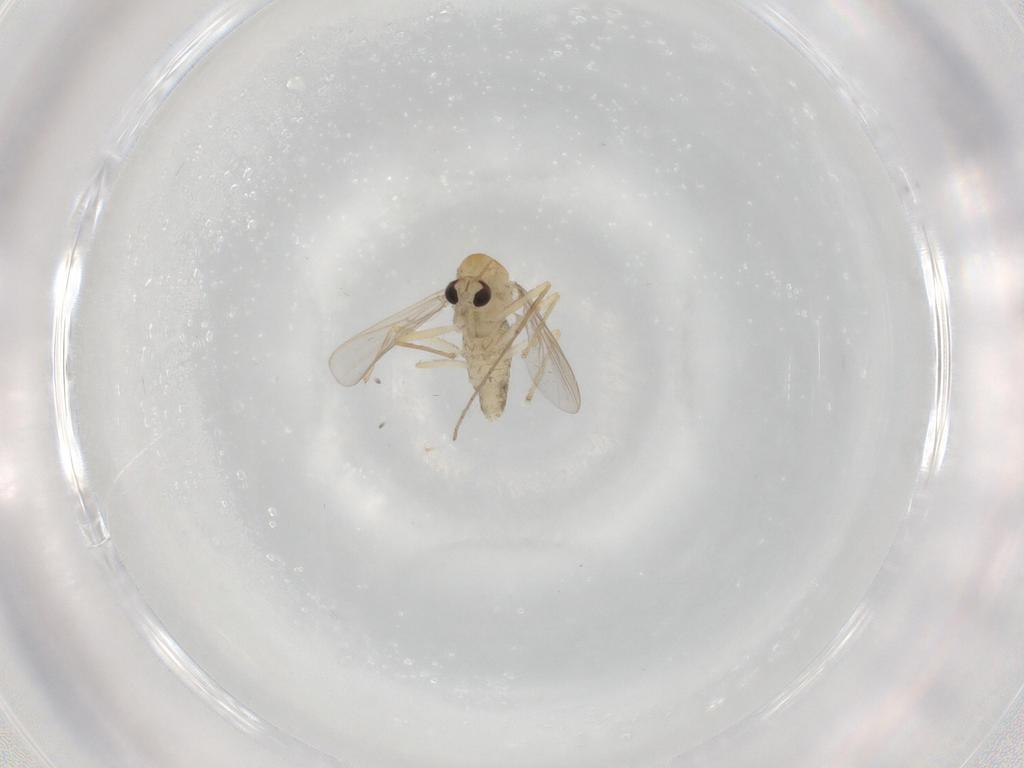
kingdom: Animalia
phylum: Arthropoda
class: Insecta
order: Diptera
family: Chironomidae
